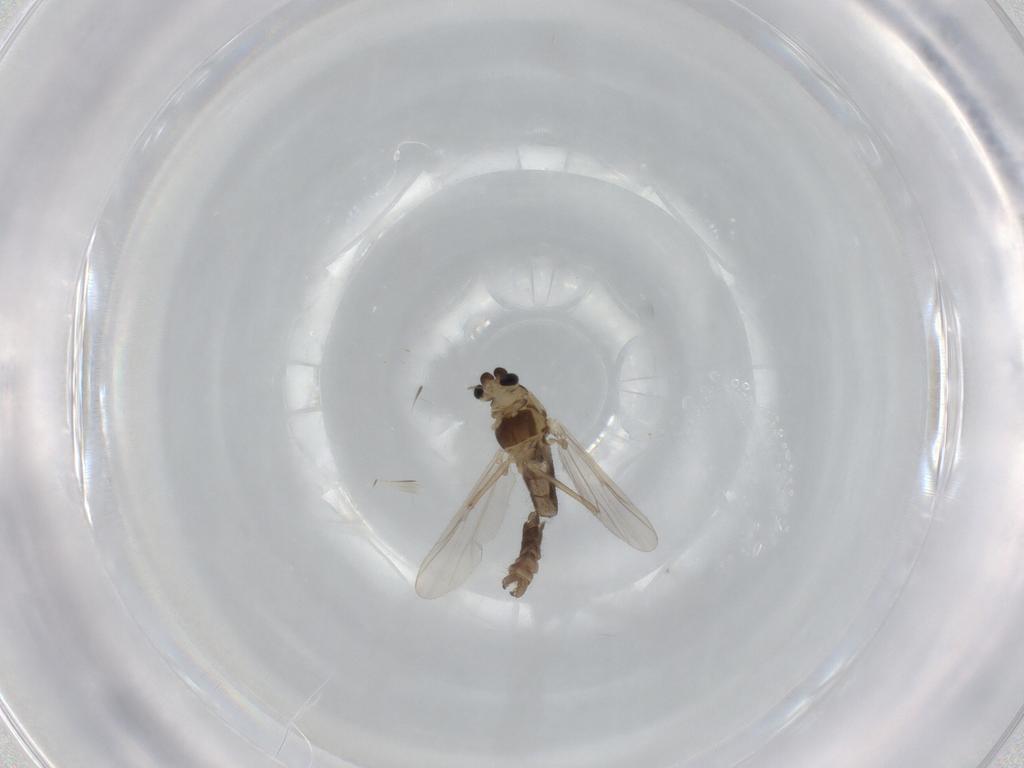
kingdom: Animalia
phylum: Arthropoda
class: Insecta
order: Diptera
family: Chironomidae
